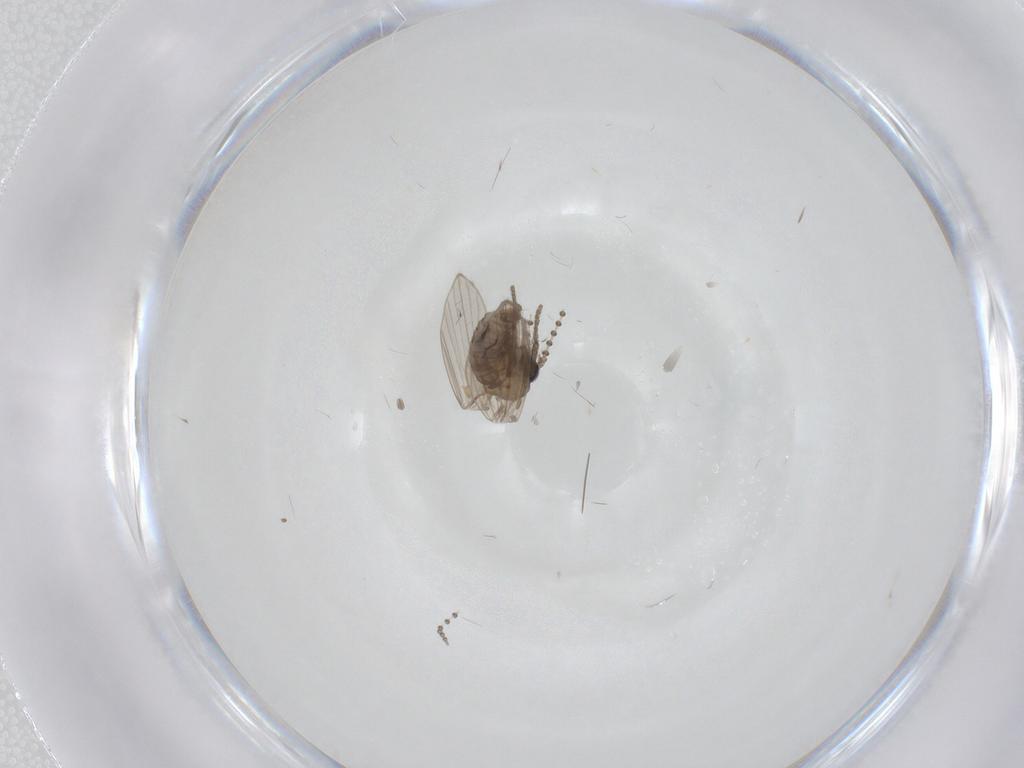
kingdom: Animalia
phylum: Arthropoda
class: Insecta
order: Diptera
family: Psychodidae
